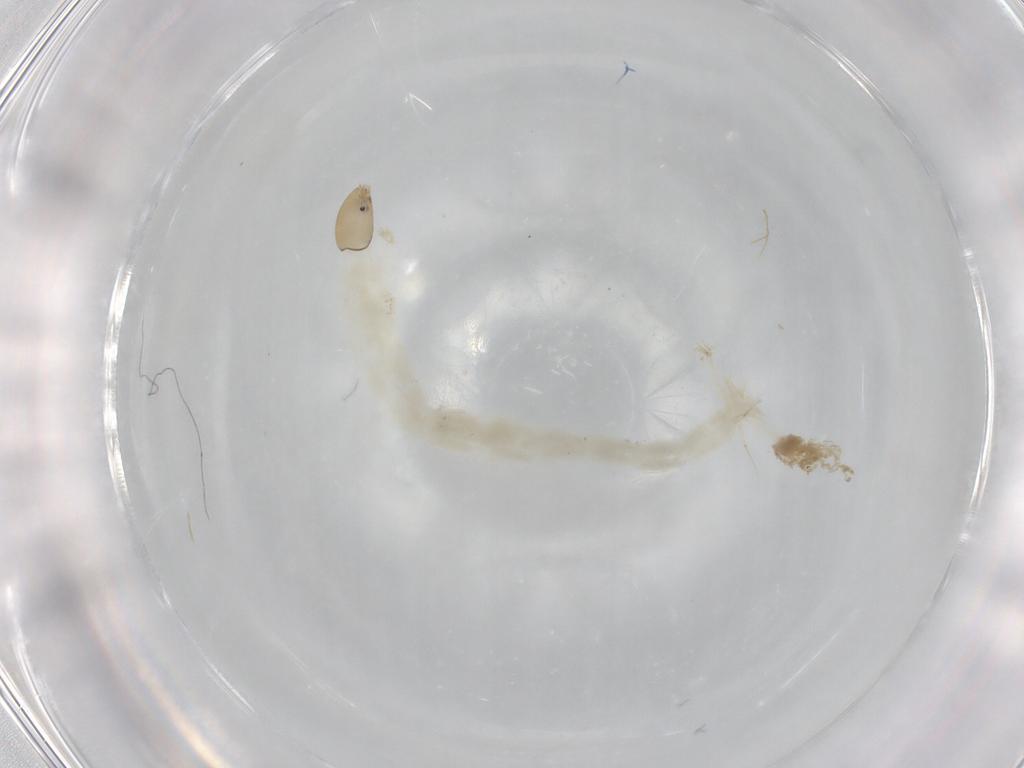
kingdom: Animalia
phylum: Arthropoda
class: Insecta
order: Diptera
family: Chironomidae
